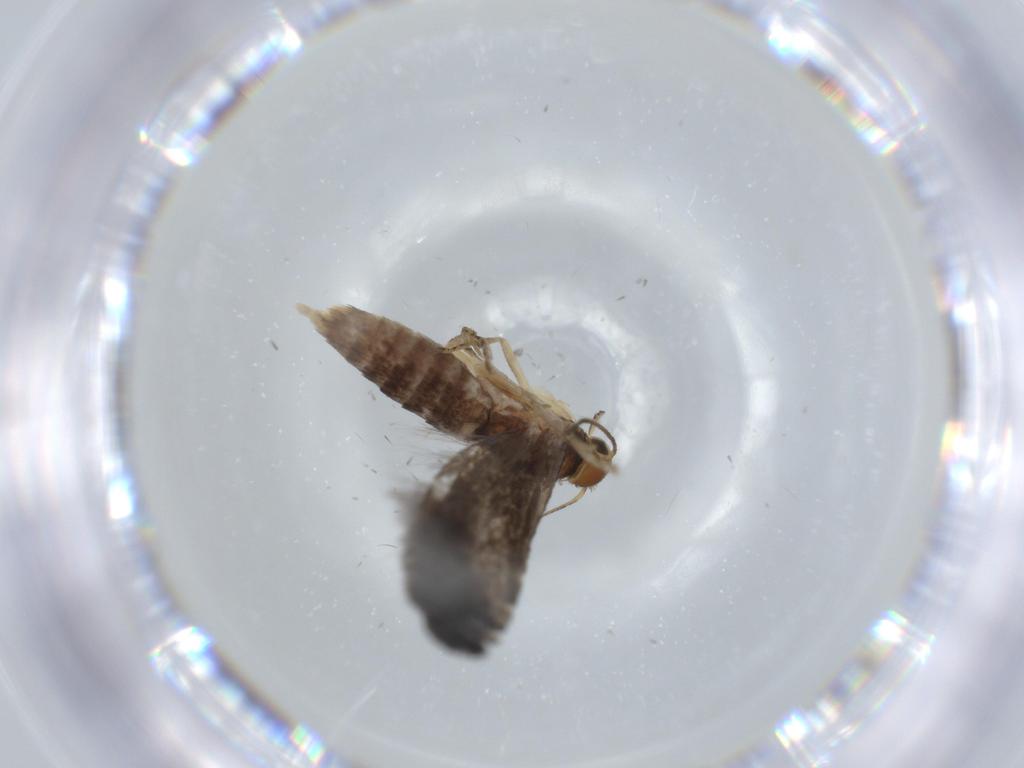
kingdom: Animalia
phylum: Arthropoda
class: Insecta
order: Lepidoptera
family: Glyphipterigidae
